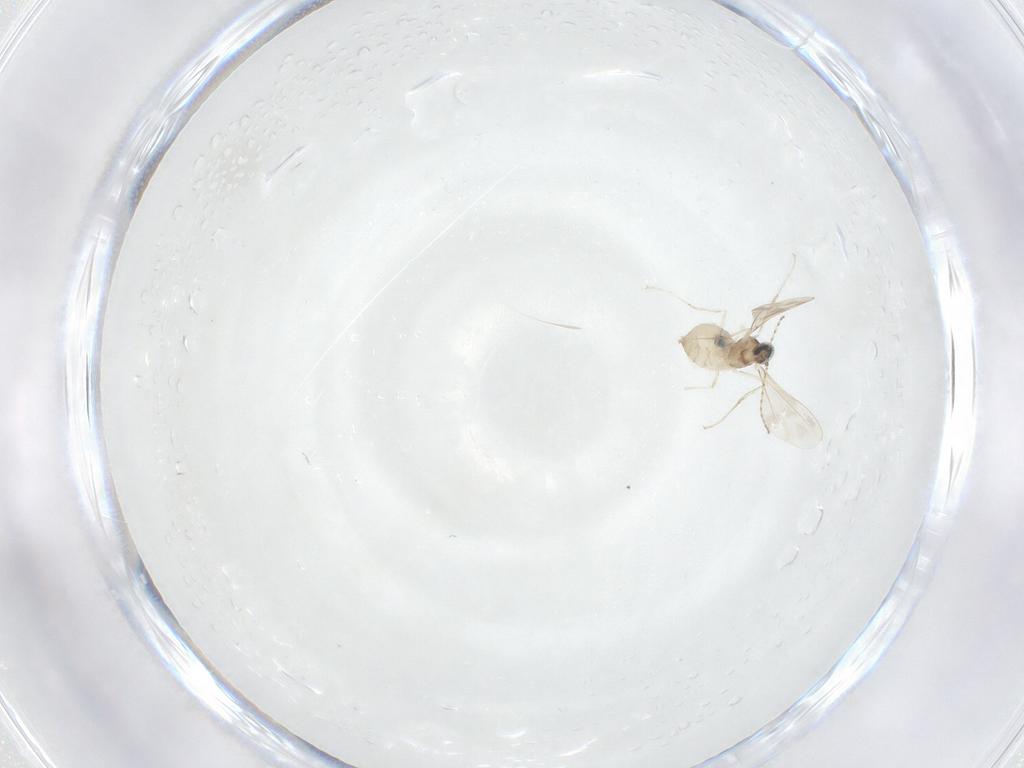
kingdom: Animalia
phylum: Arthropoda
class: Insecta
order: Diptera
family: Cecidomyiidae
